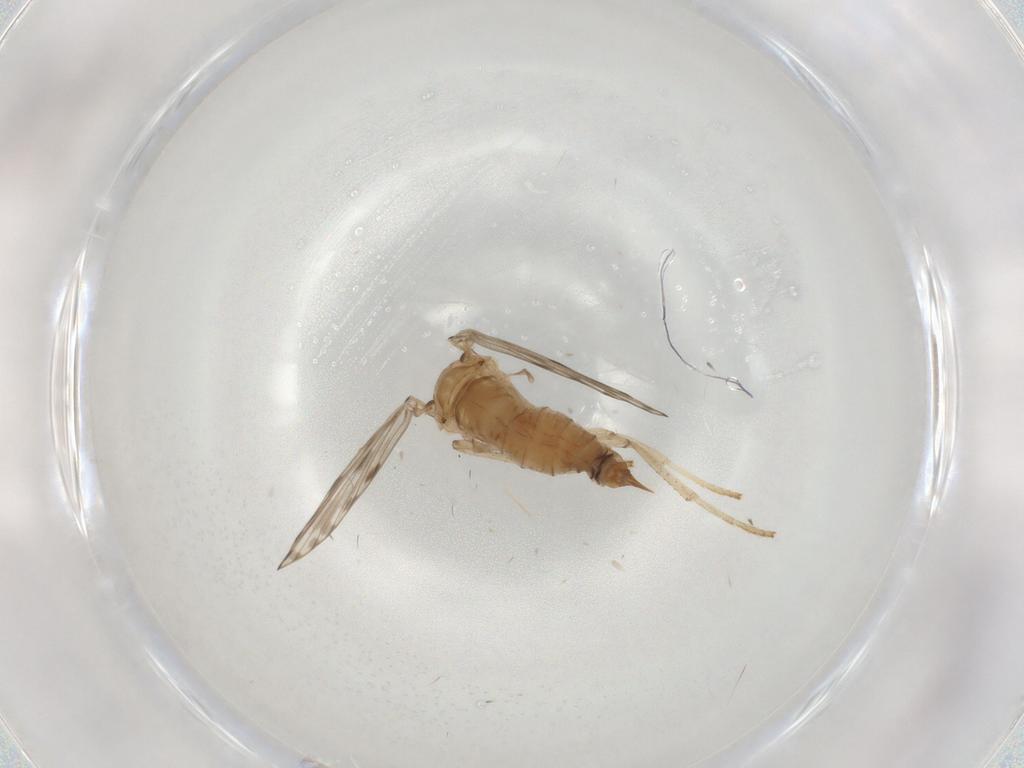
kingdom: Animalia
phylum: Arthropoda
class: Insecta
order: Diptera
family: Psychodidae
